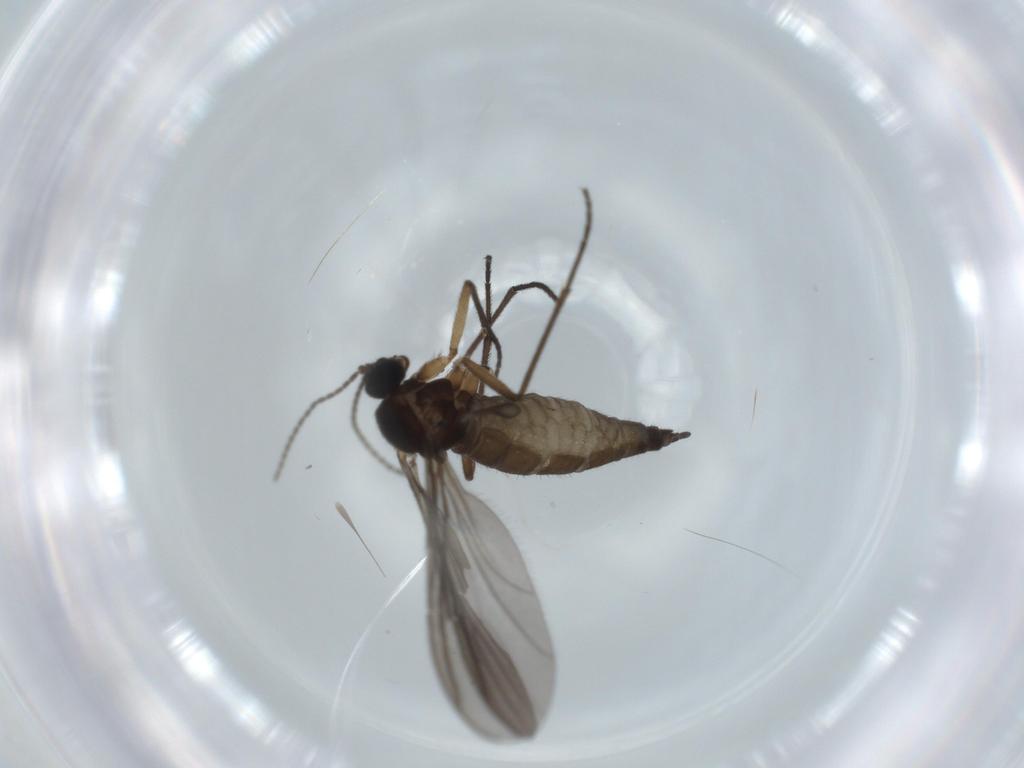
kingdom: Animalia
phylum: Arthropoda
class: Insecta
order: Diptera
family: Sciaridae
